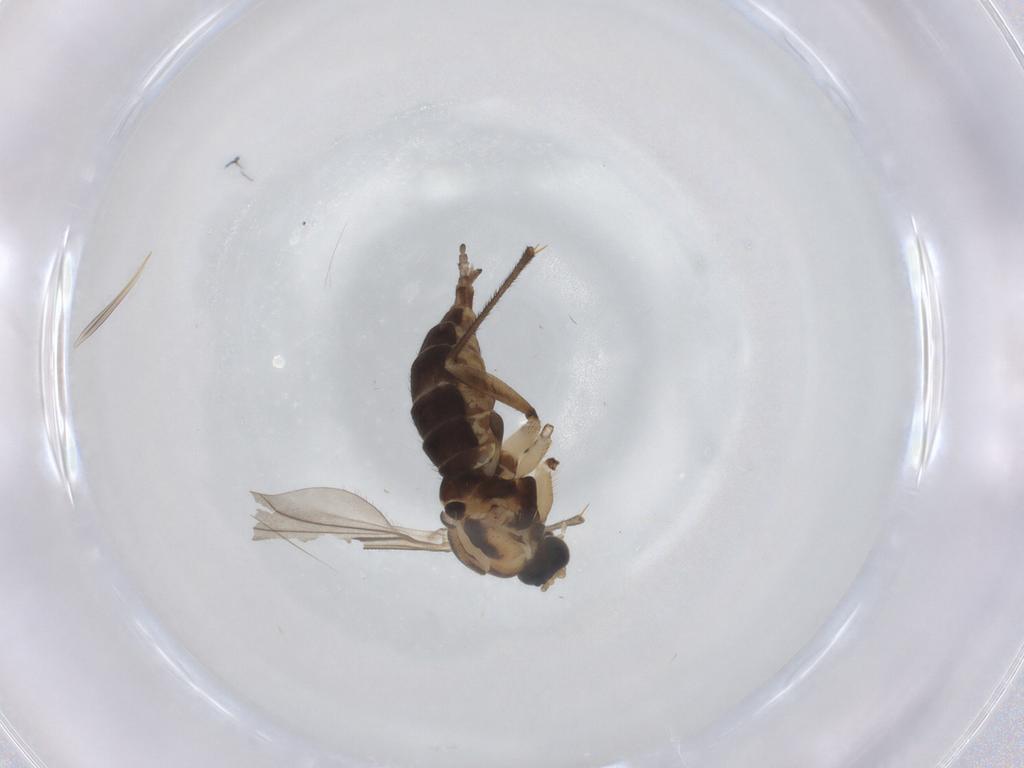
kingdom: Animalia
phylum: Arthropoda
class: Insecta
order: Diptera
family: Sciaridae
